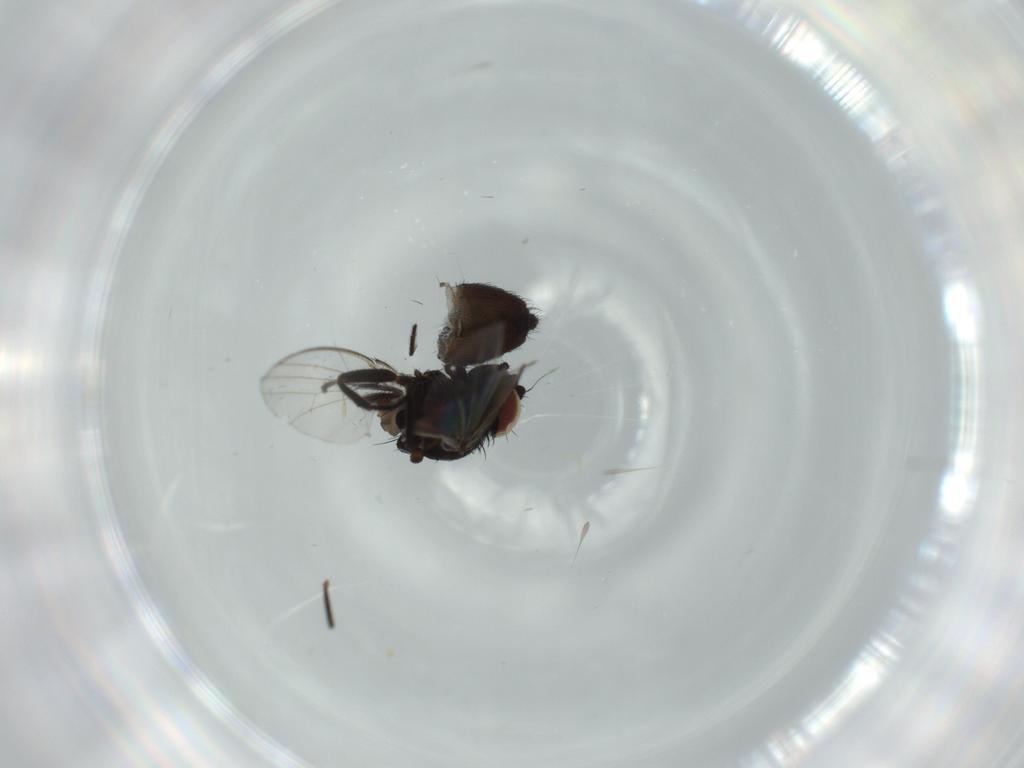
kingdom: Animalia
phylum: Arthropoda
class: Insecta
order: Diptera
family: Milichiidae
